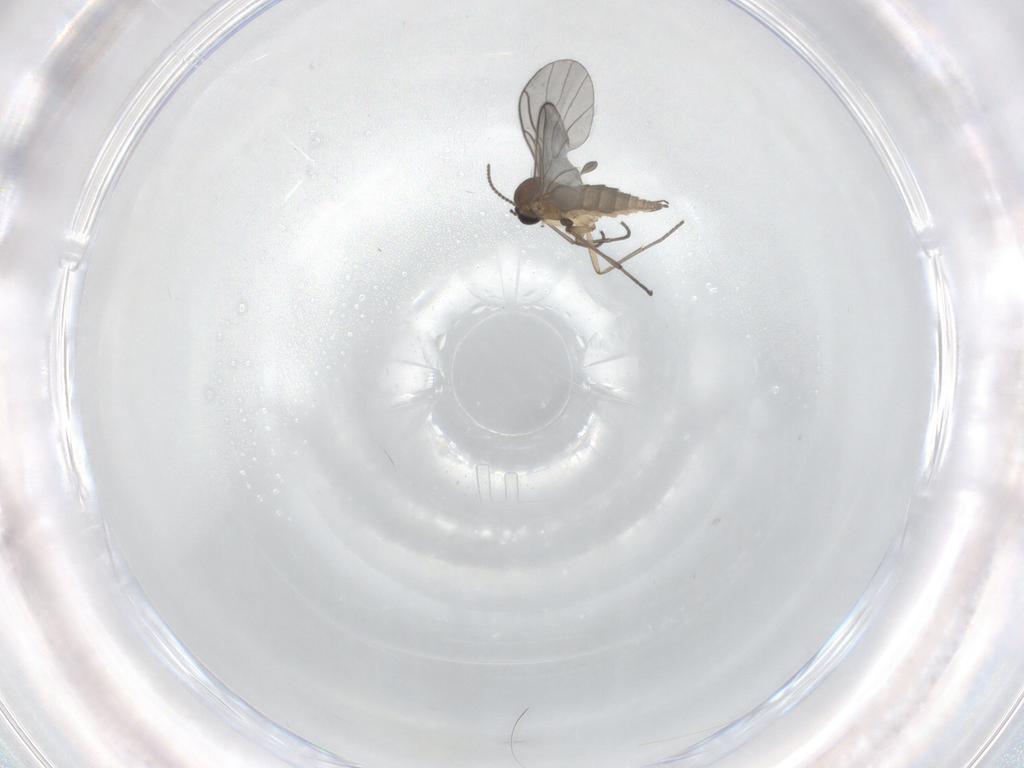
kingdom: Animalia
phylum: Arthropoda
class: Insecta
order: Diptera
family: Sciaridae
